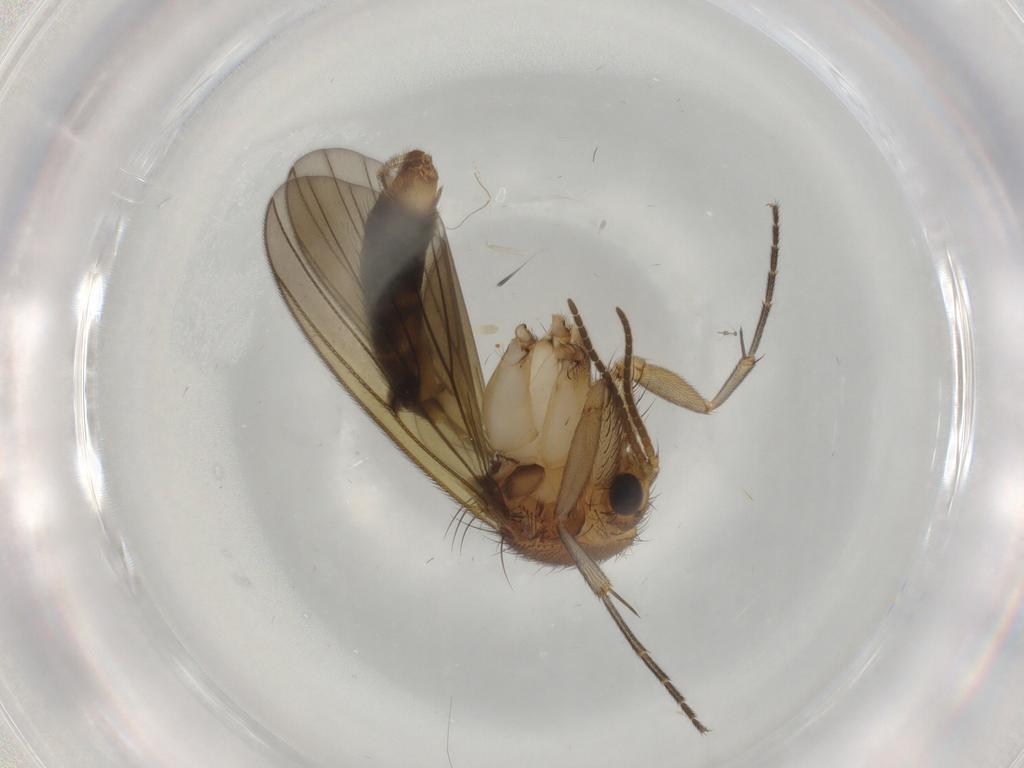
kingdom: Animalia
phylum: Arthropoda
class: Insecta
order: Diptera
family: Mycetophilidae
